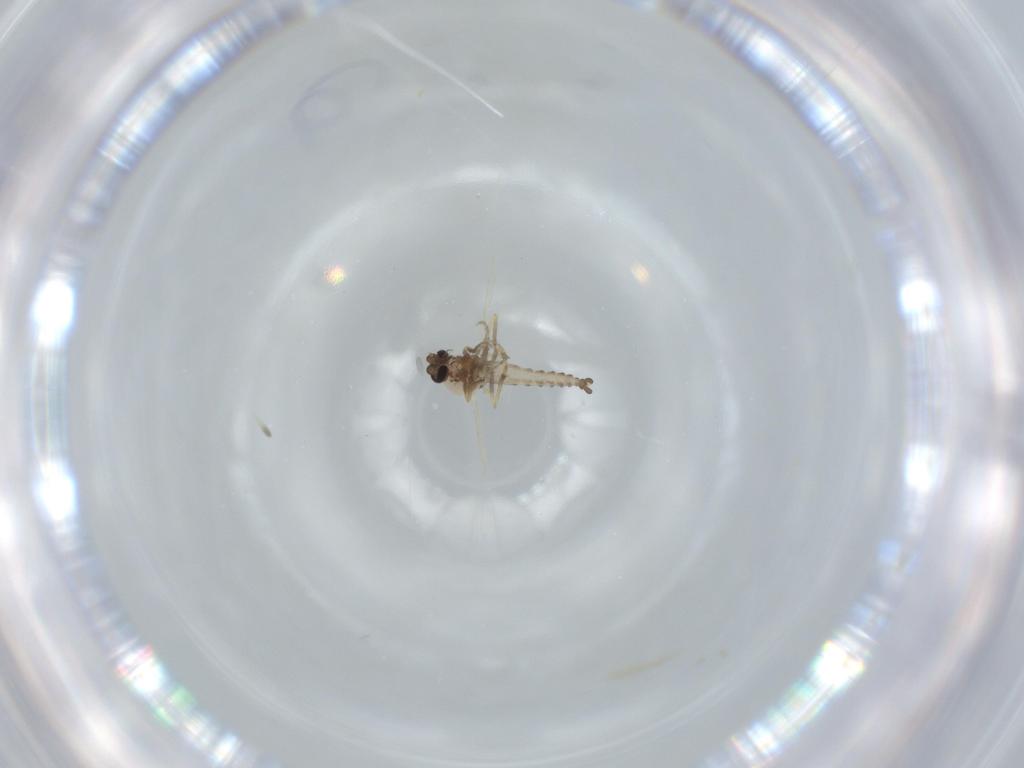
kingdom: Animalia
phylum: Arthropoda
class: Insecta
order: Diptera
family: Ceratopogonidae
